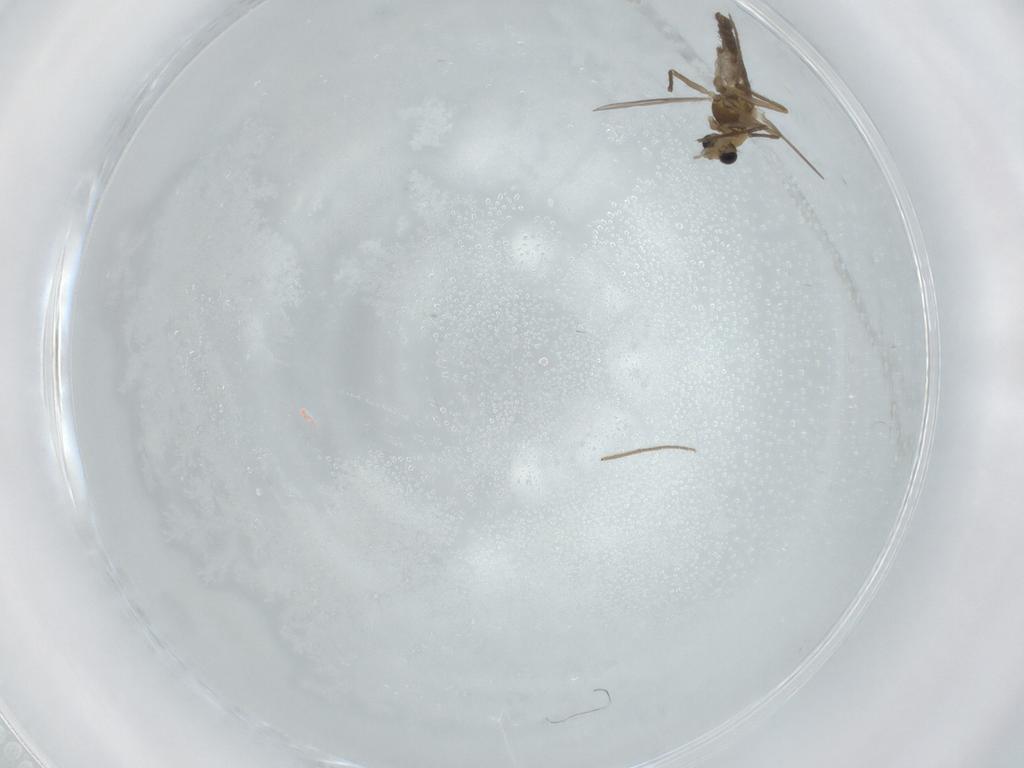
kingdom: Animalia
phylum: Arthropoda
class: Insecta
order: Diptera
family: Chironomidae
